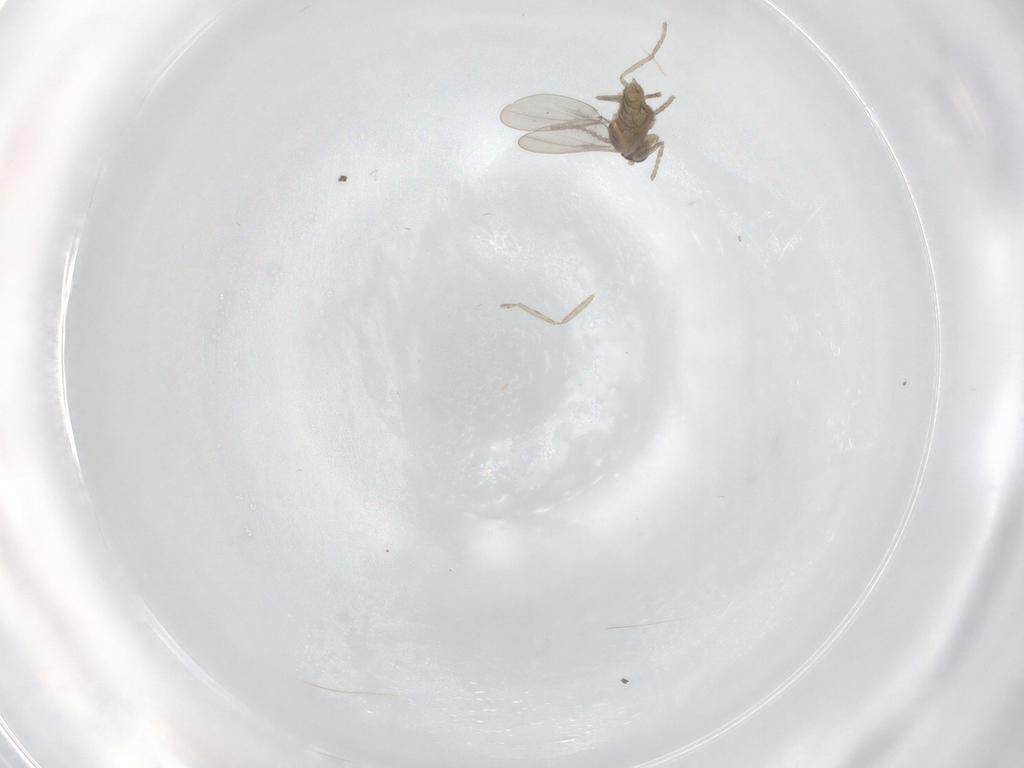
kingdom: Animalia
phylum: Arthropoda
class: Insecta
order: Diptera
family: Cecidomyiidae
